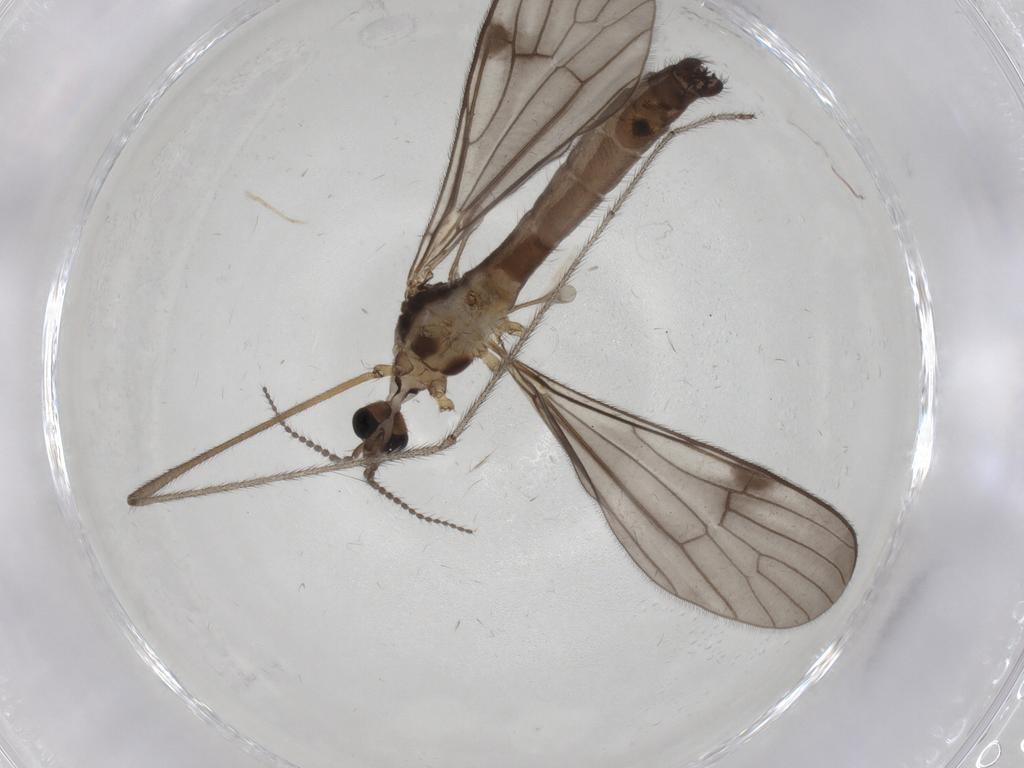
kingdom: Animalia
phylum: Arthropoda
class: Insecta
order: Diptera
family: Limoniidae
